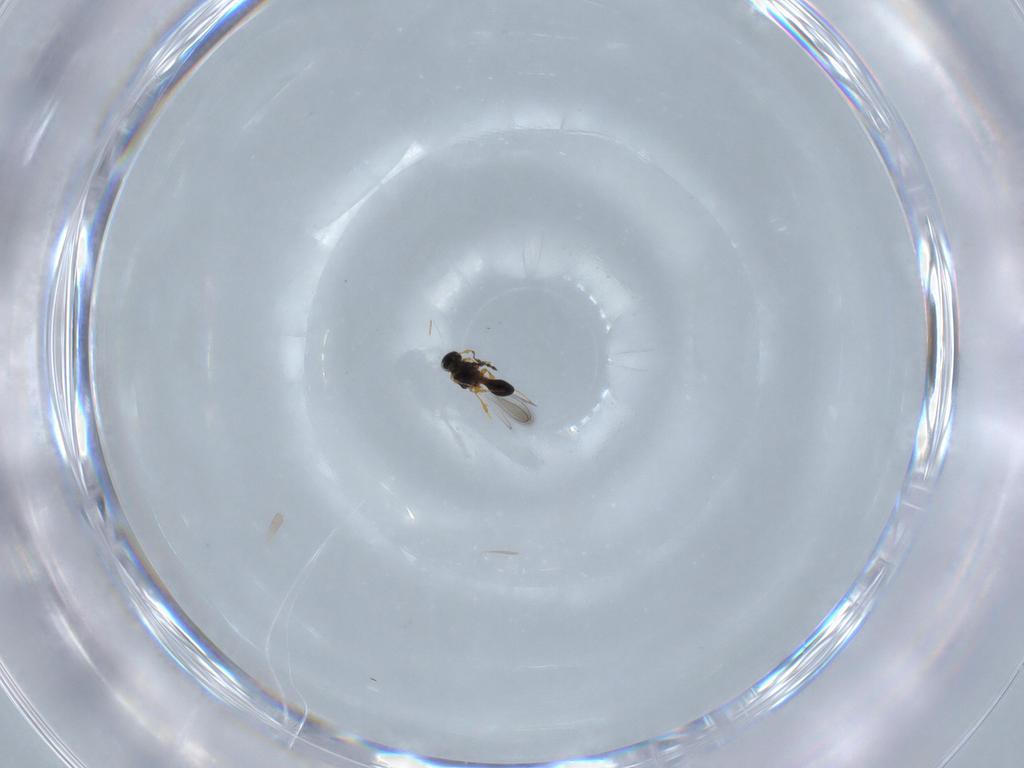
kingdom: Animalia
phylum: Arthropoda
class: Insecta
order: Hymenoptera
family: Platygastridae
